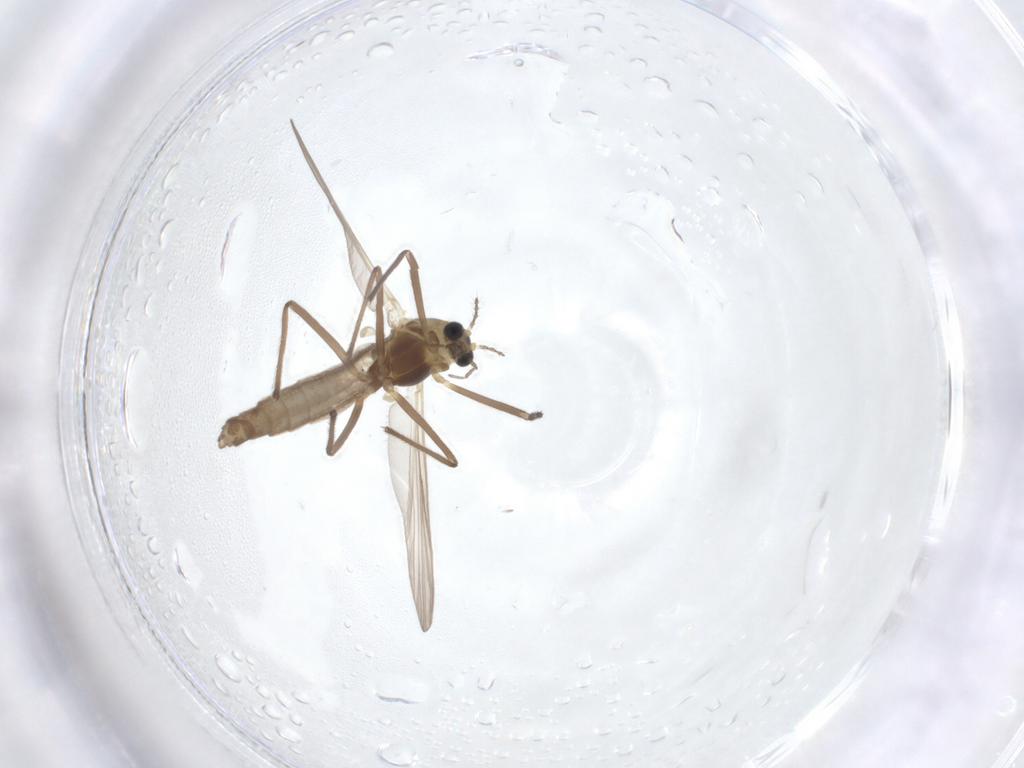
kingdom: Animalia
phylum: Arthropoda
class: Insecta
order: Diptera
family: Chironomidae
